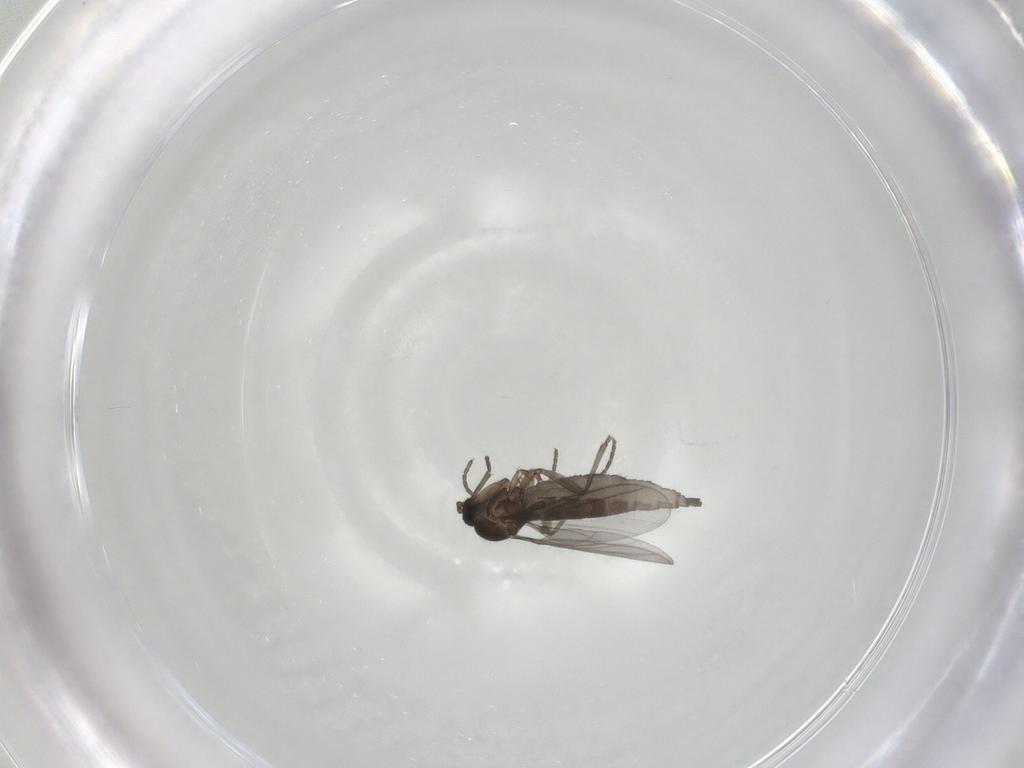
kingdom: Animalia
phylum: Arthropoda
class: Insecta
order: Diptera
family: Sciaridae
